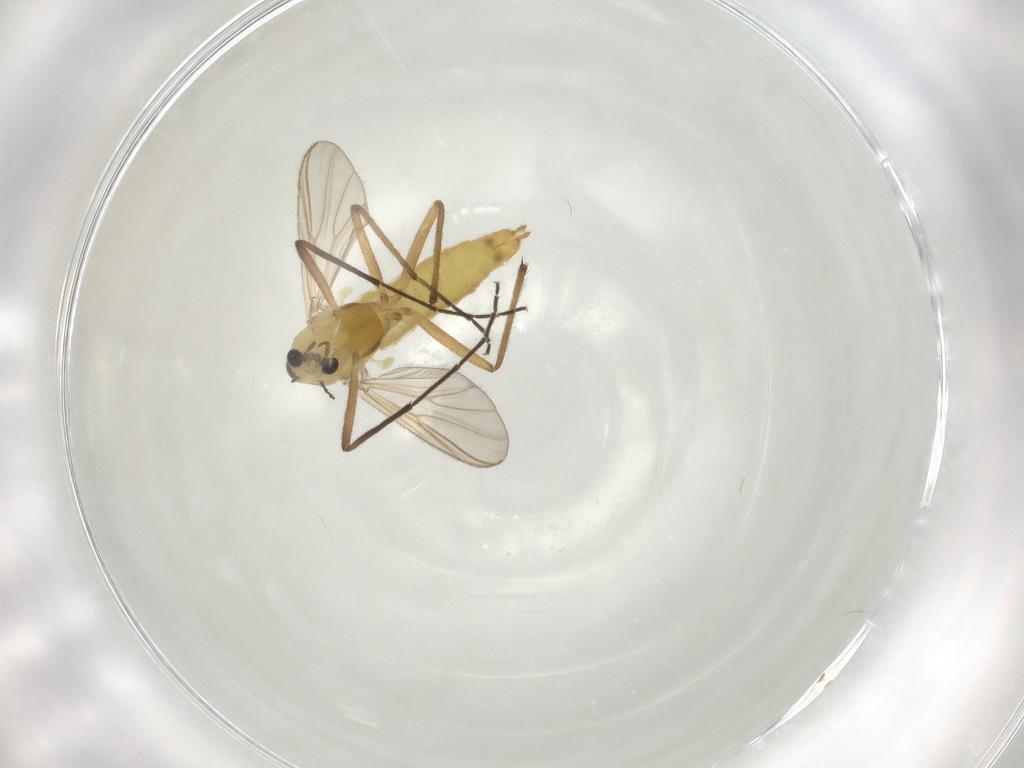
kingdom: Animalia
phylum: Arthropoda
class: Insecta
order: Diptera
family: Chironomidae
